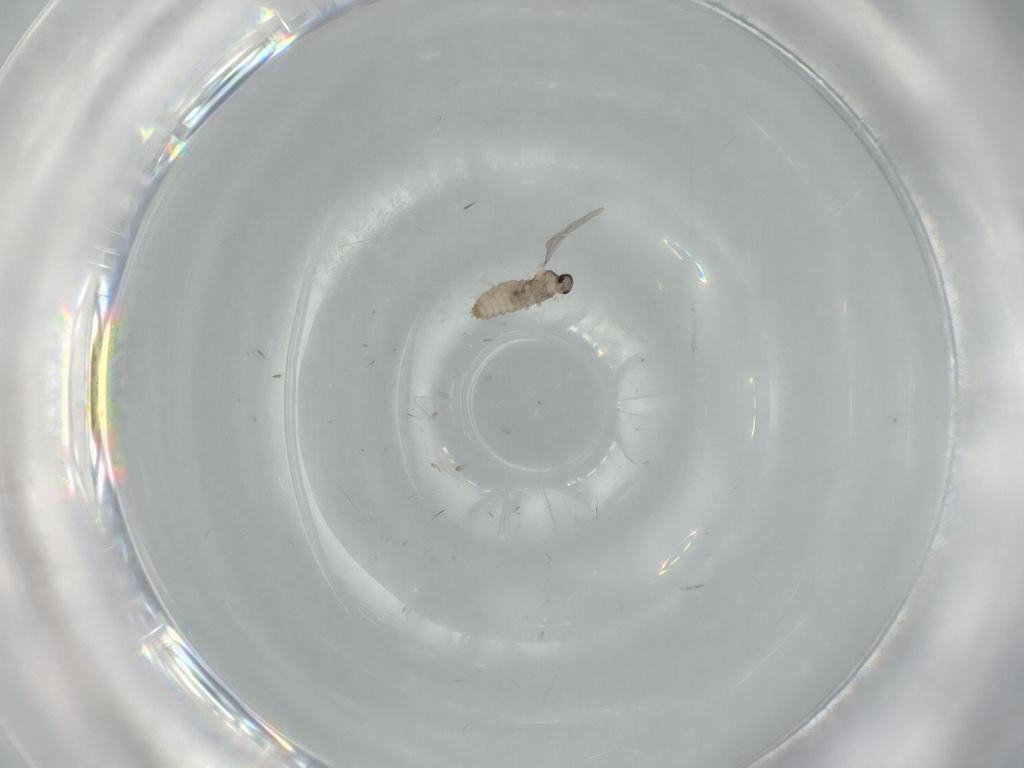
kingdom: Animalia
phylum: Arthropoda
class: Insecta
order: Diptera
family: Cecidomyiidae
